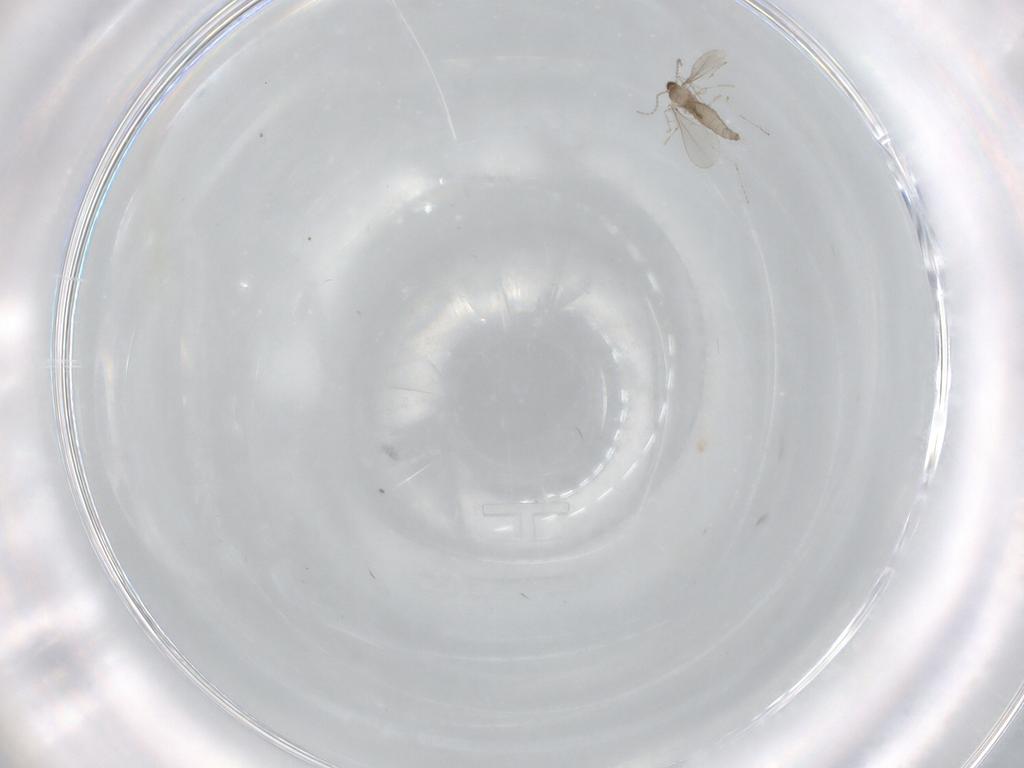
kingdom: Animalia
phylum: Arthropoda
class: Insecta
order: Diptera
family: Cecidomyiidae
